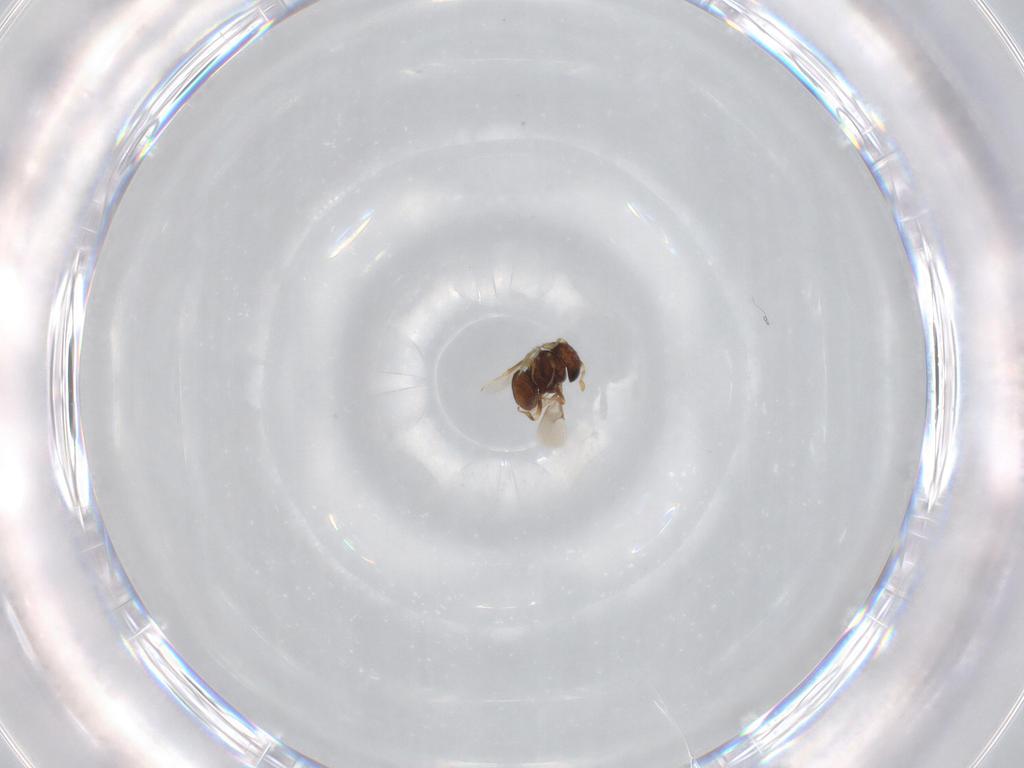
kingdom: Animalia
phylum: Arthropoda
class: Insecta
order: Hymenoptera
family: Scelionidae
